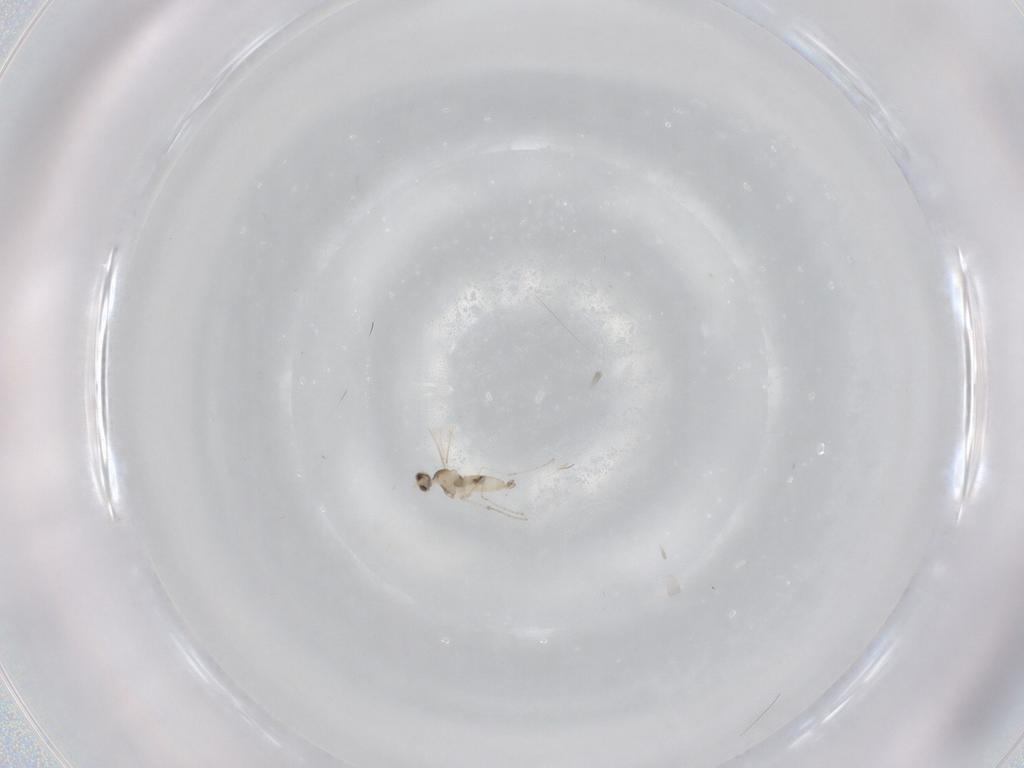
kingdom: Animalia
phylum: Arthropoda
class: Insecta
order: Diptera
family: Cecidomyiidae
